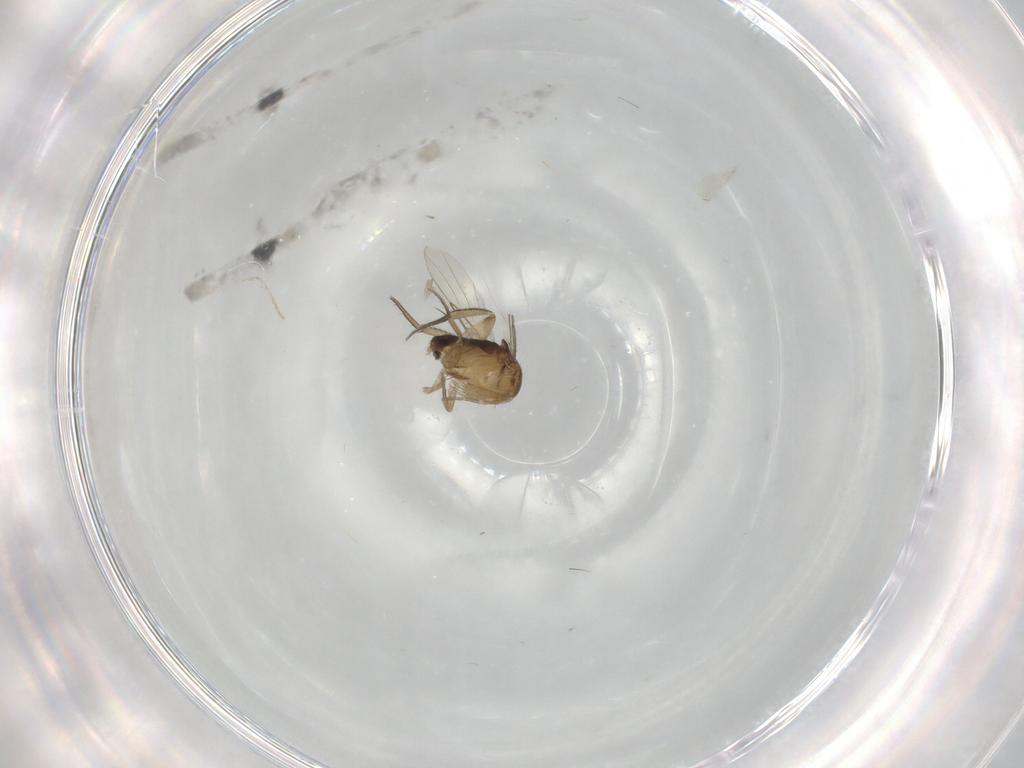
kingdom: Animalia
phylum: Arthropoda
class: Insecta
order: Diptera
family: Phoridae
